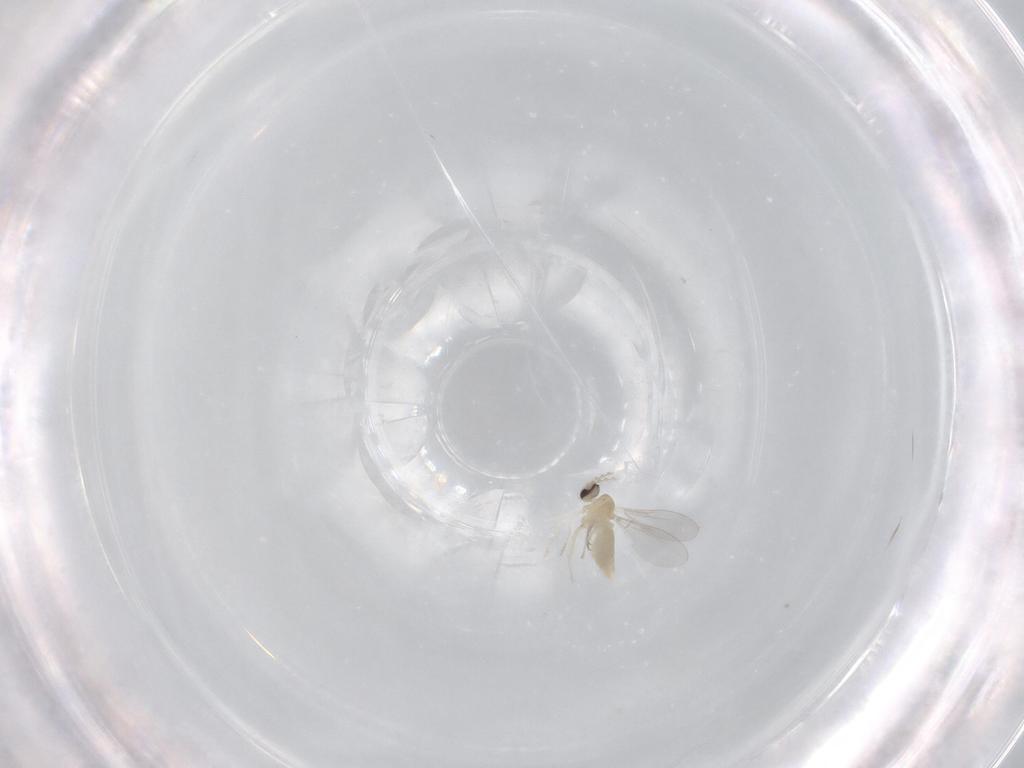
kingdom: Animalia
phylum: Arthropoda
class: Insecta
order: Diptera
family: Cecidomyiidae
